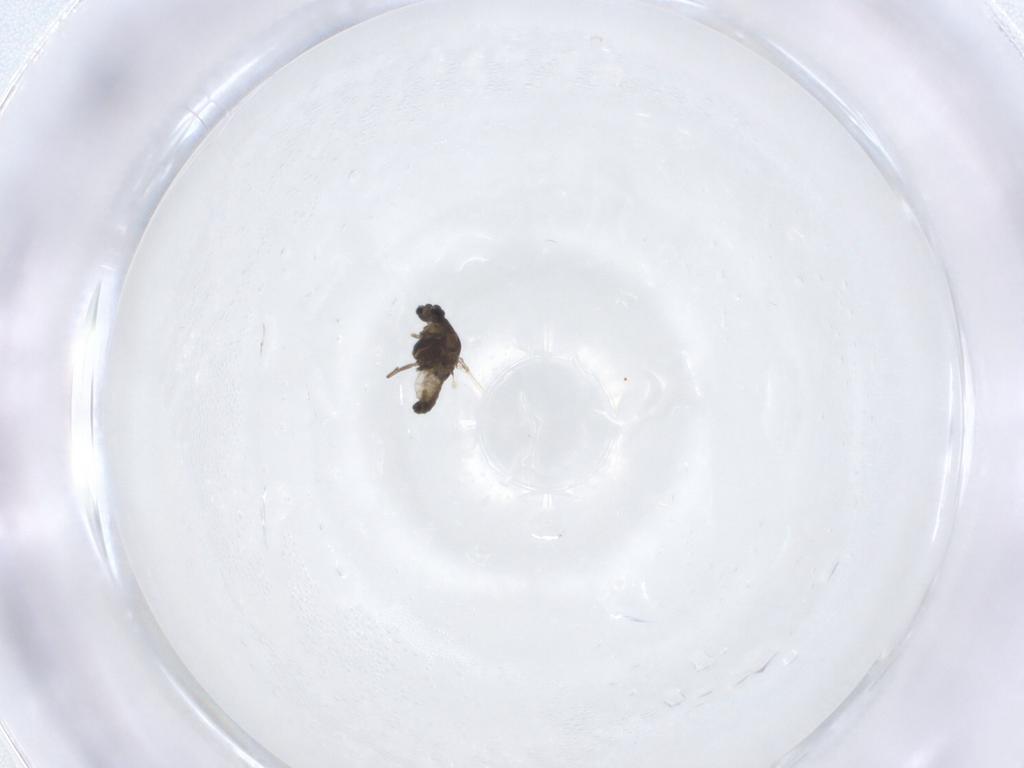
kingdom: Animalia
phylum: Arthropoda
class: Insecta
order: Diptera
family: Chironomidae
